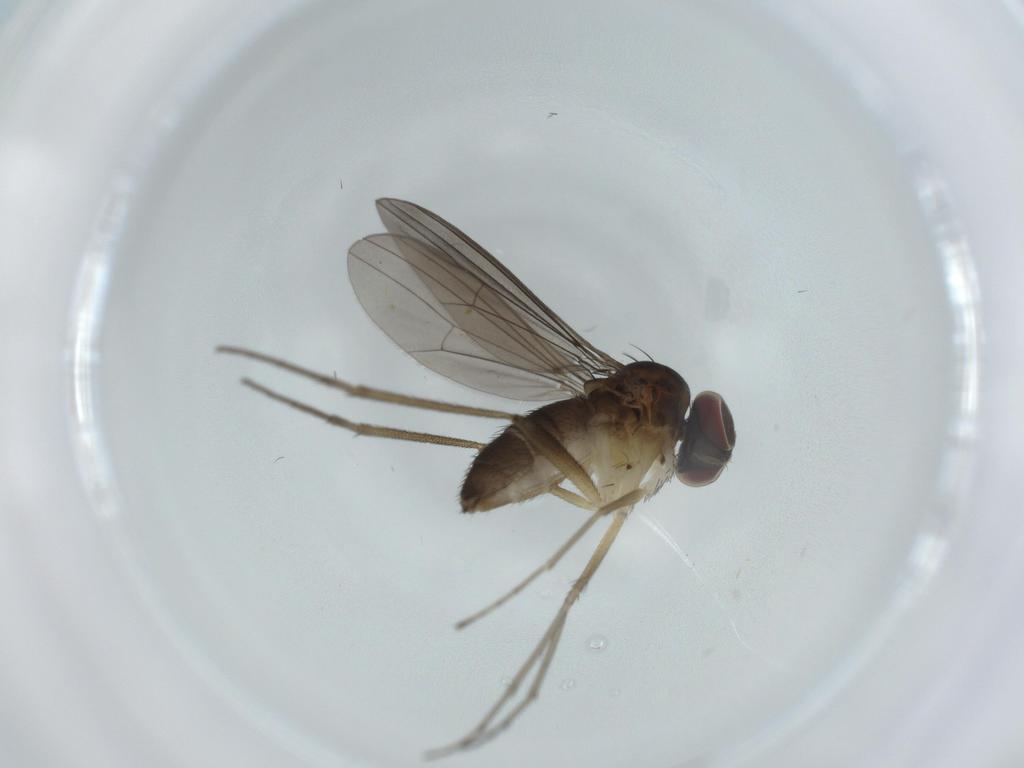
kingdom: Animalia
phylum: Arthropoda
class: Insecta
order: Diptera
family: Dolichopodidae
